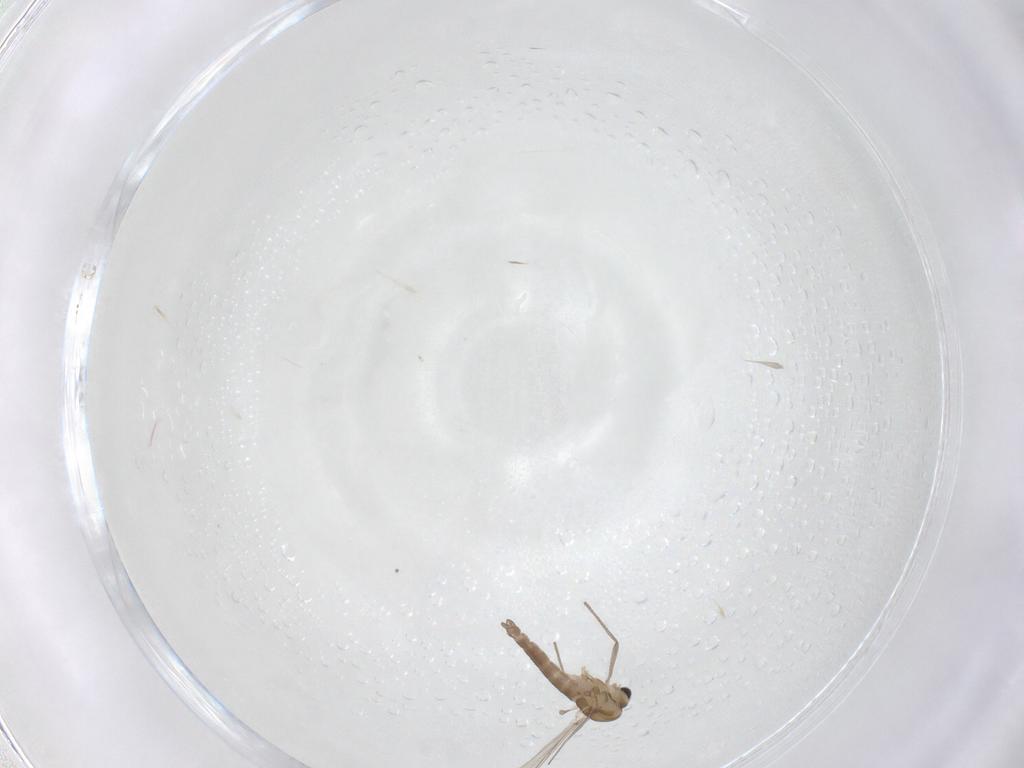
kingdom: Animalia
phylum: Arthropoda
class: Insecta
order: Diptera
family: Chironomidae
